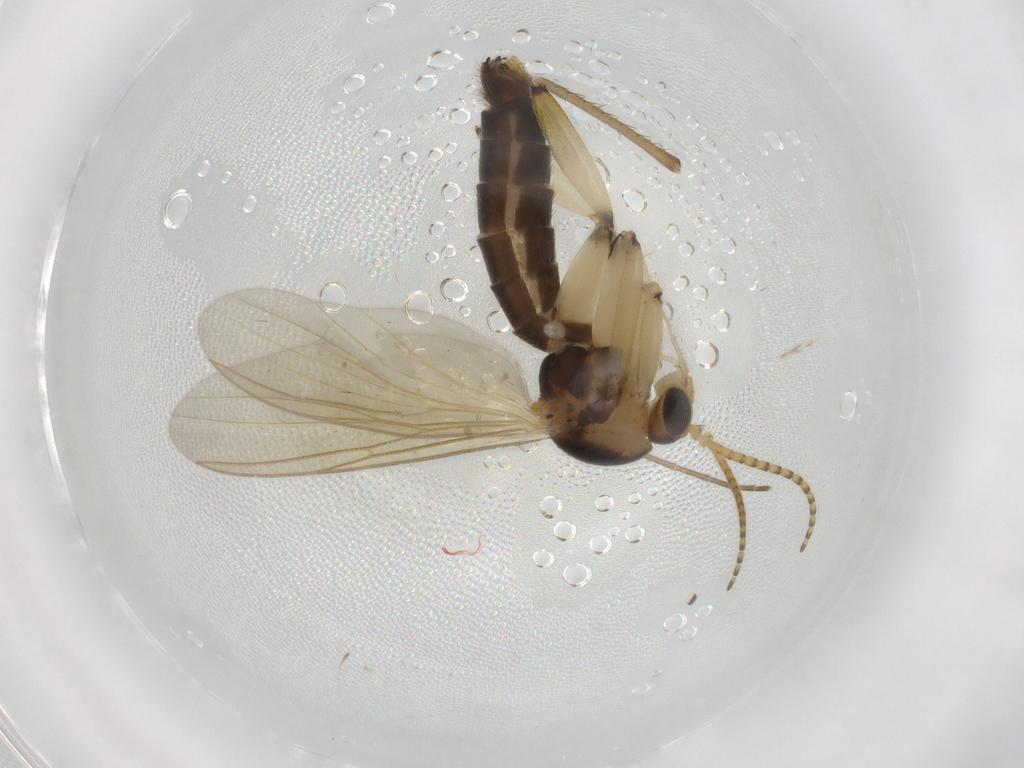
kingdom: Animalia
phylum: Arthropoda
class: Insecta
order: Diptera
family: Mycetophilidae
